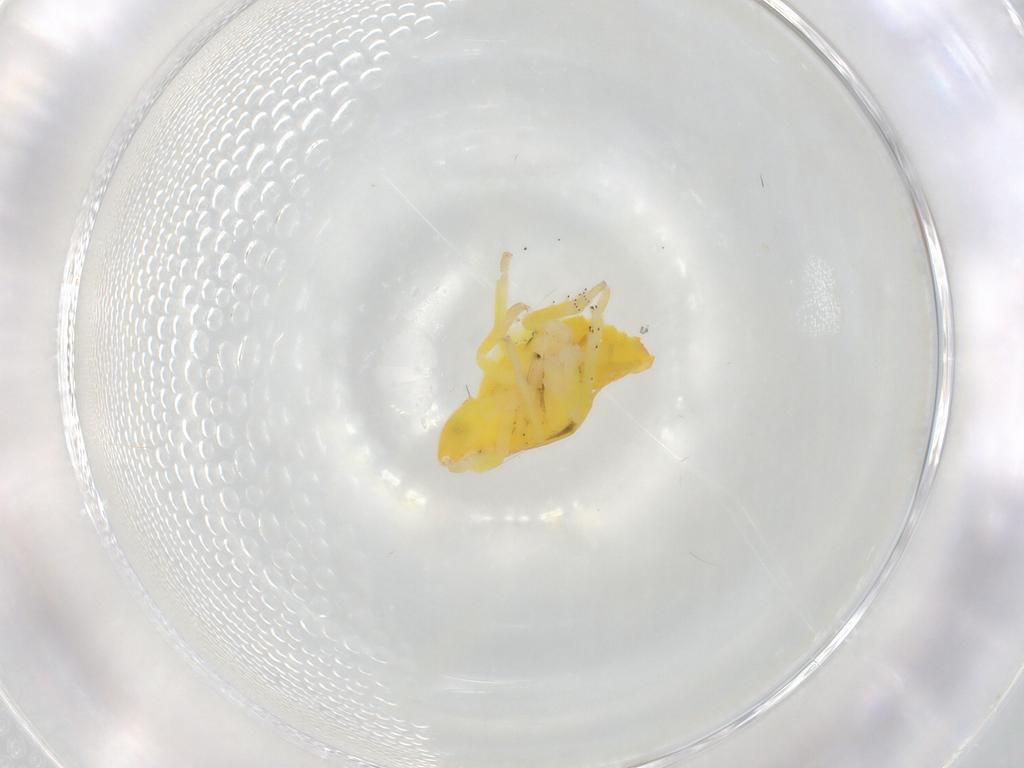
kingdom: Animalia
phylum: Arthropoda
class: Insecta
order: Hemiptera
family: Tropiduchidae
